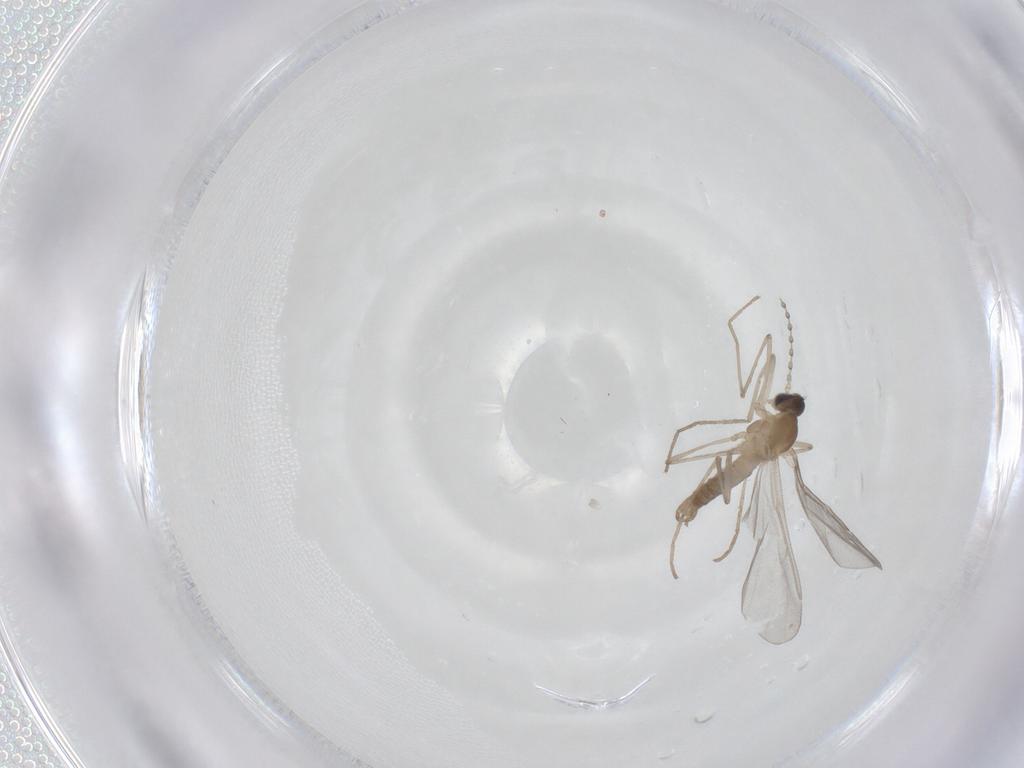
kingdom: Animalia
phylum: Arthropoda
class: Insecta
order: Diptera
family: Cecidomyiidae
